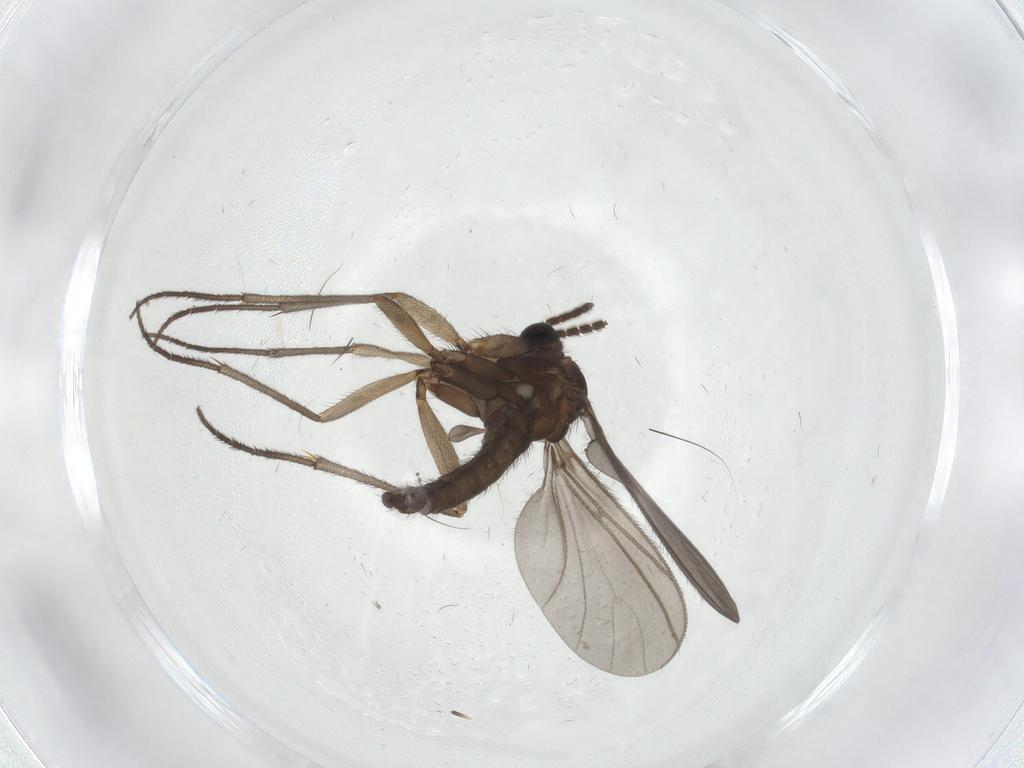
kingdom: Animalia
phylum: Arthropoda
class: Insecta
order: Diptera
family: Sciaridae
